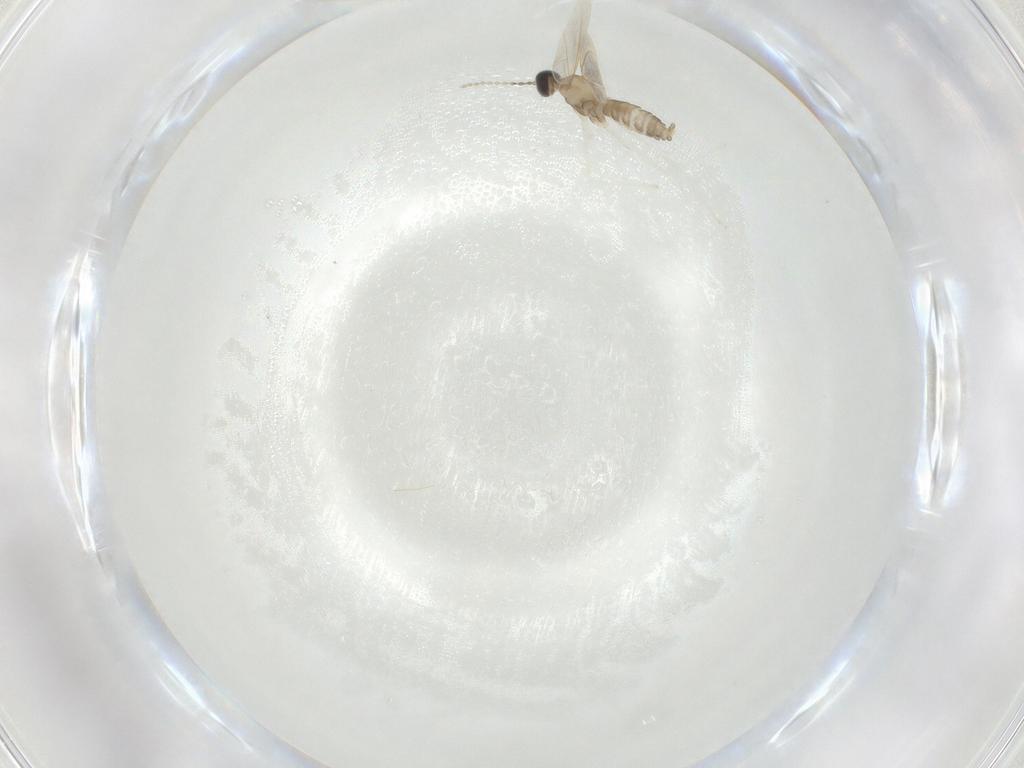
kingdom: Animalia
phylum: Arthropoda
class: Insecta
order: Diptera
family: Cecidomyiidae
